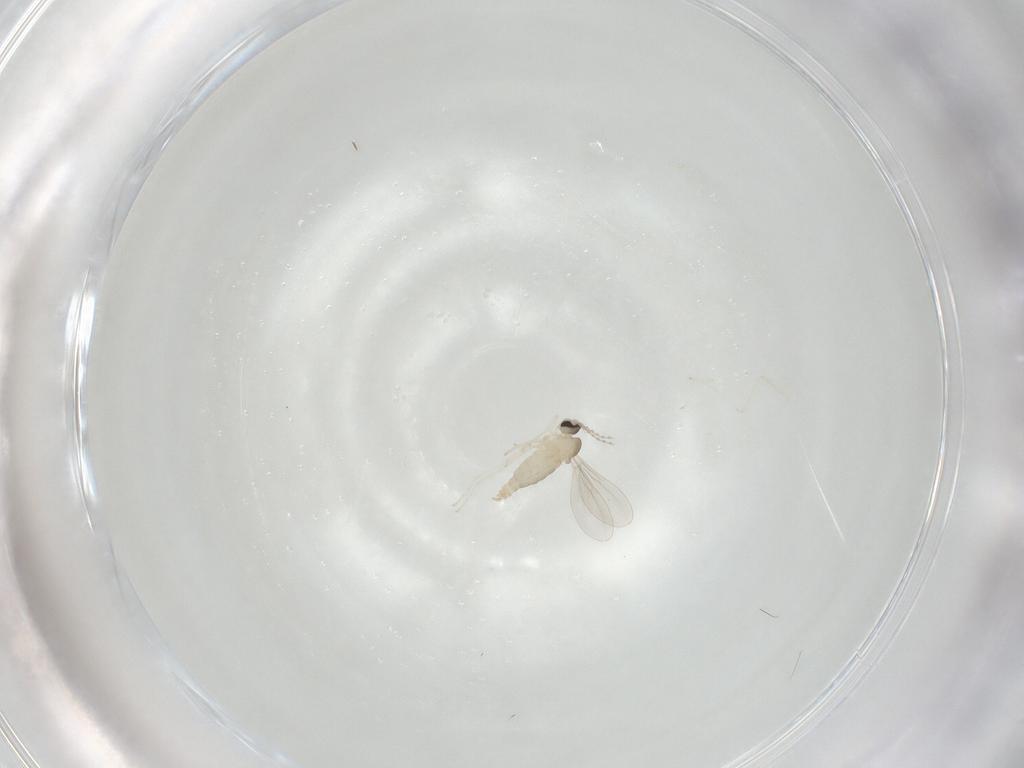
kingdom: Animalia
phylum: Arthropoda
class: Insecta
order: Diptera
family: Cecidomyiidae
